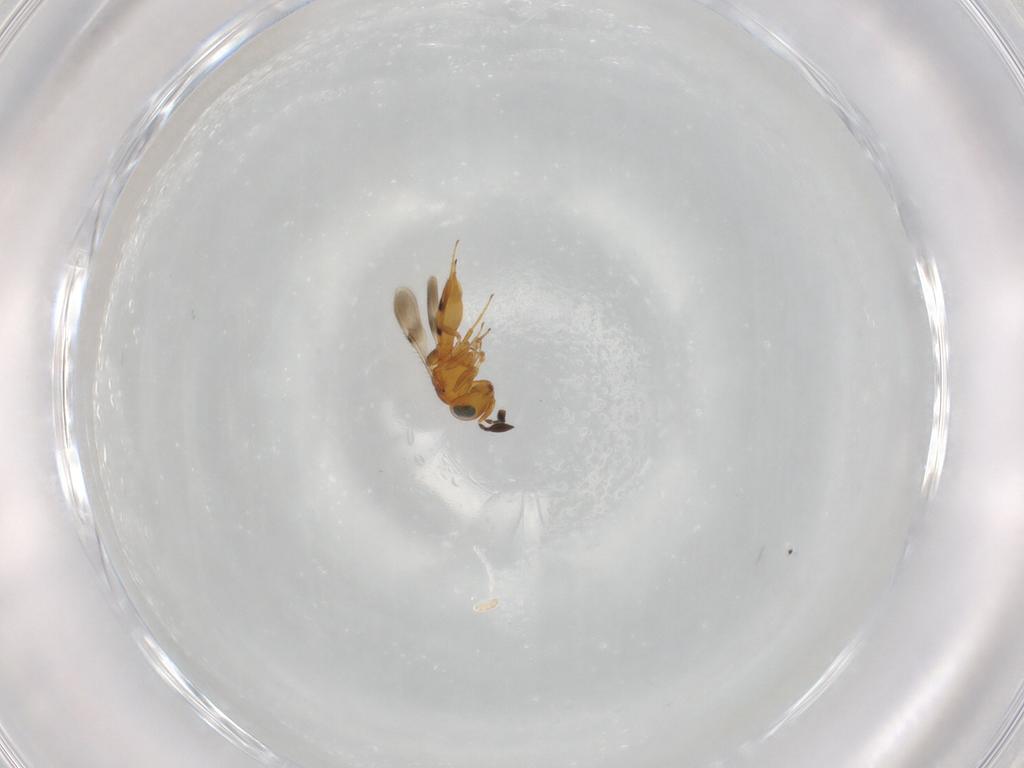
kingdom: Animalia
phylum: Arthropoda
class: Insecta
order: Hymenoptera
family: Scelionidae
